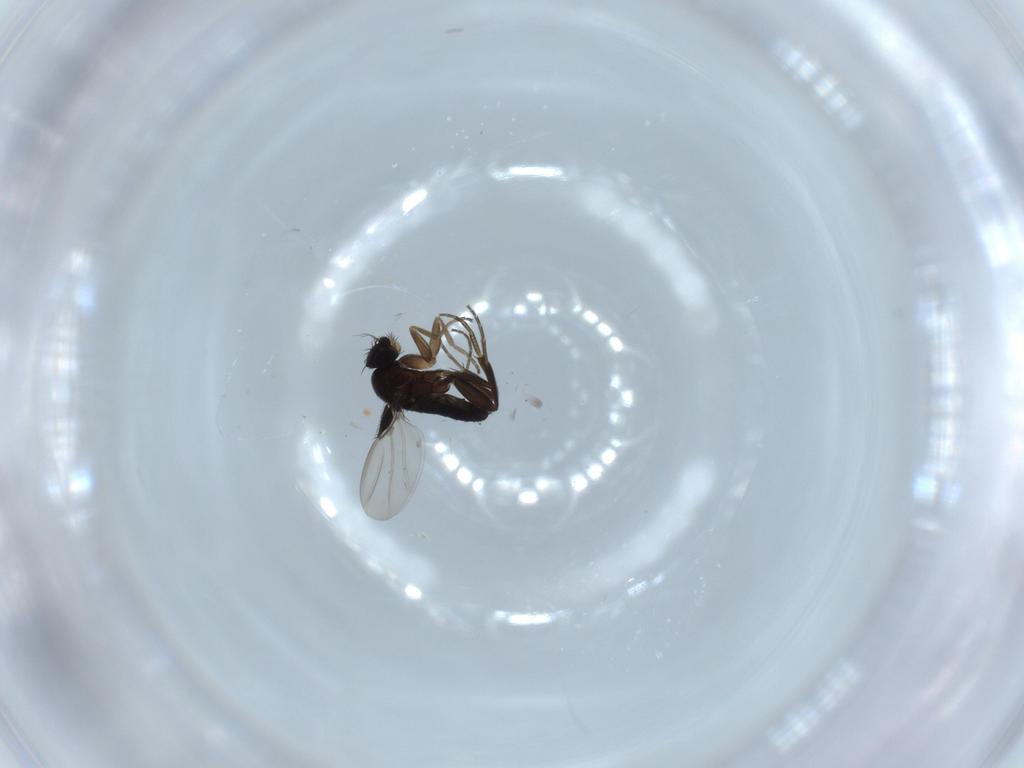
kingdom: Animalia
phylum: Arthropoda
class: Insecta
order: Diptera
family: Phoridae
